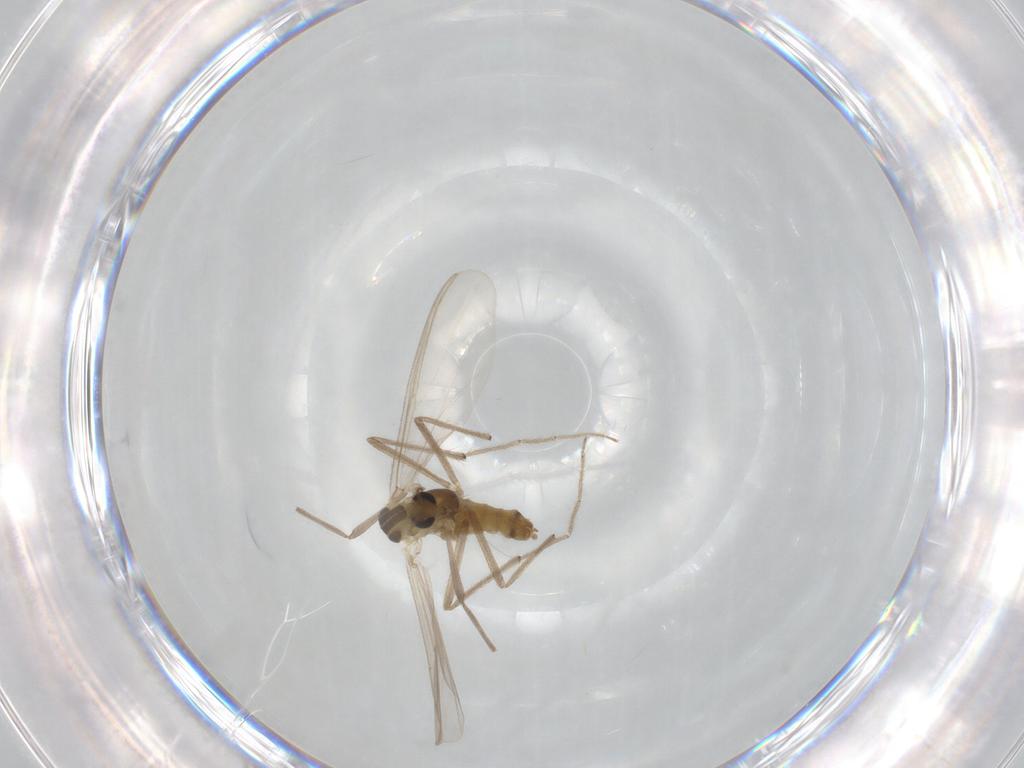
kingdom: Animalia
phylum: Arthropoda
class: Insecta
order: Diptera
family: Chironomidae
